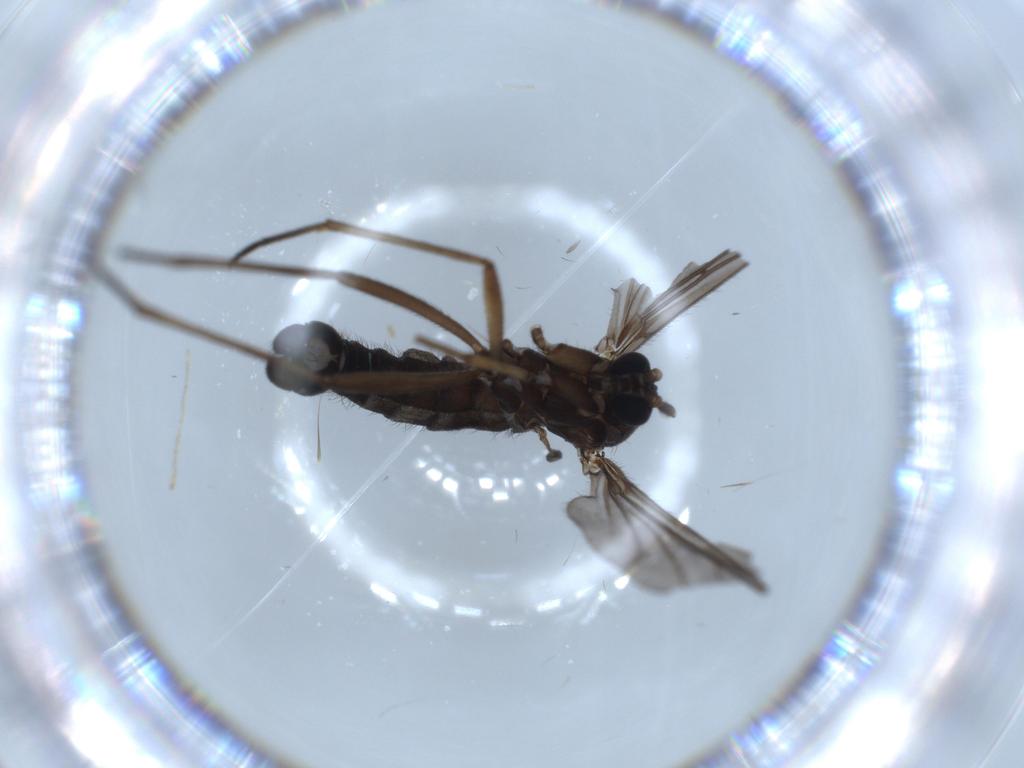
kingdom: Animalia
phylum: Arthropoda
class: Insecta
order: Diptera
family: Sciaridae
